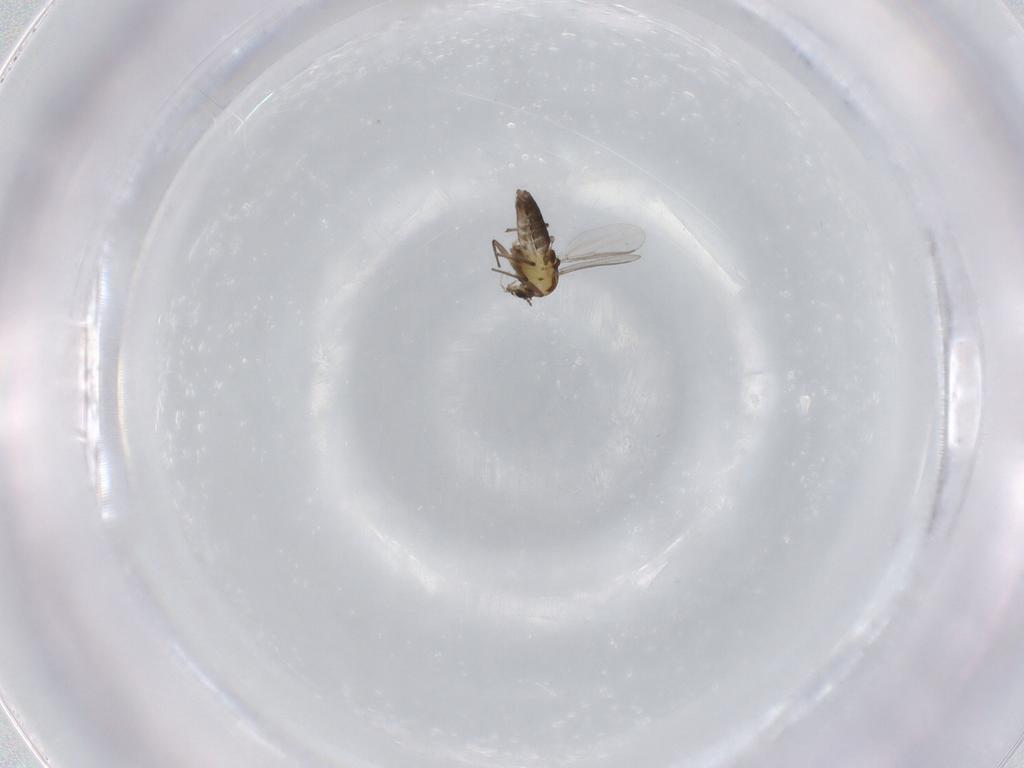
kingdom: Animalia
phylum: Arthropoda
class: Insecta
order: Diptera
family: Chironomidae
